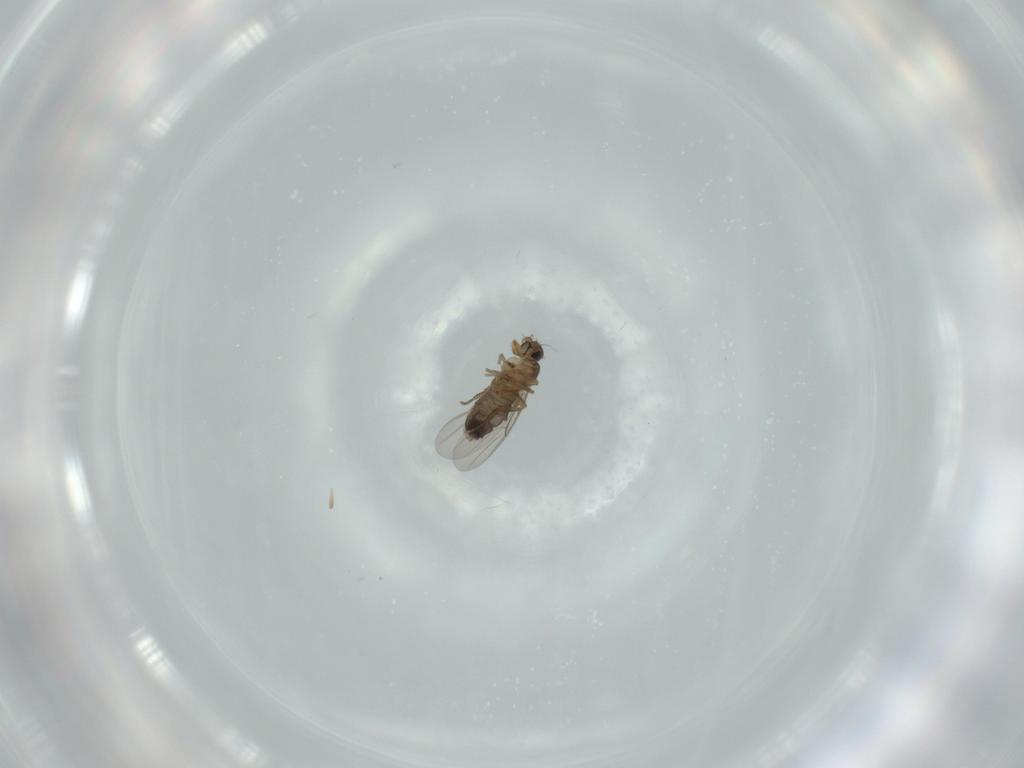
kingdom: Animalia
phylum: Arthropoda
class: Insecta
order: Diptera
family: Phoridae
